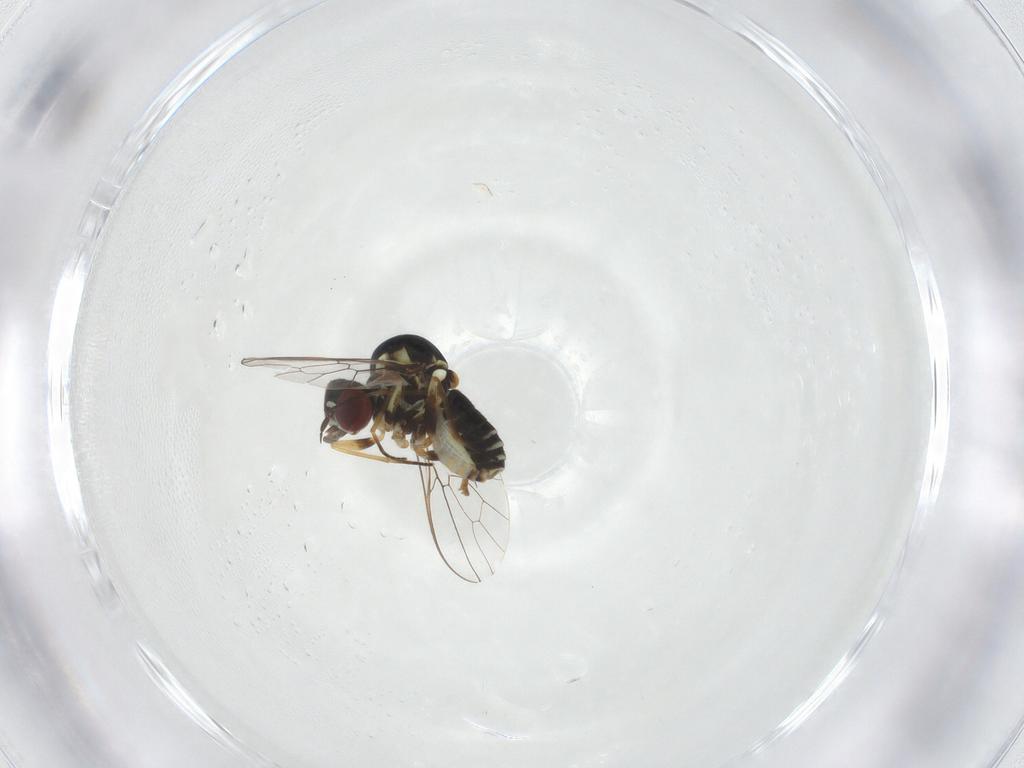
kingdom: Animalia
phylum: Arthropoda
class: Insecta
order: Diptera
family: Bombyliidae
